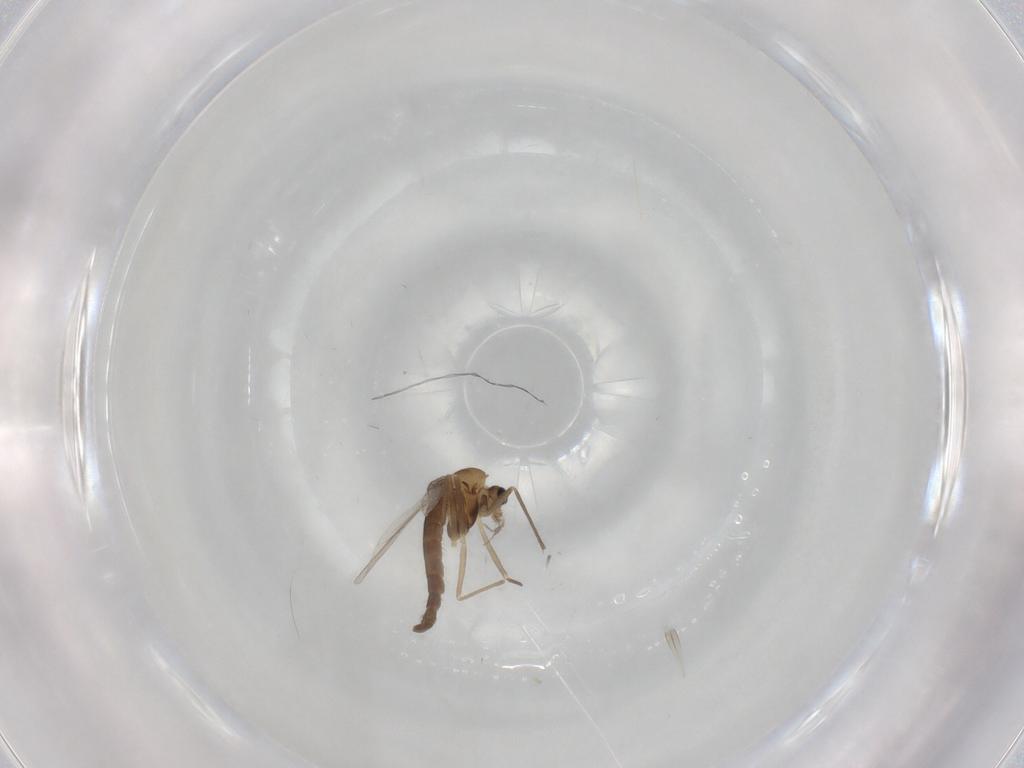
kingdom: Animalia
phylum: Arthropoda
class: Insecta
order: Diptera
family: Chironomidae
